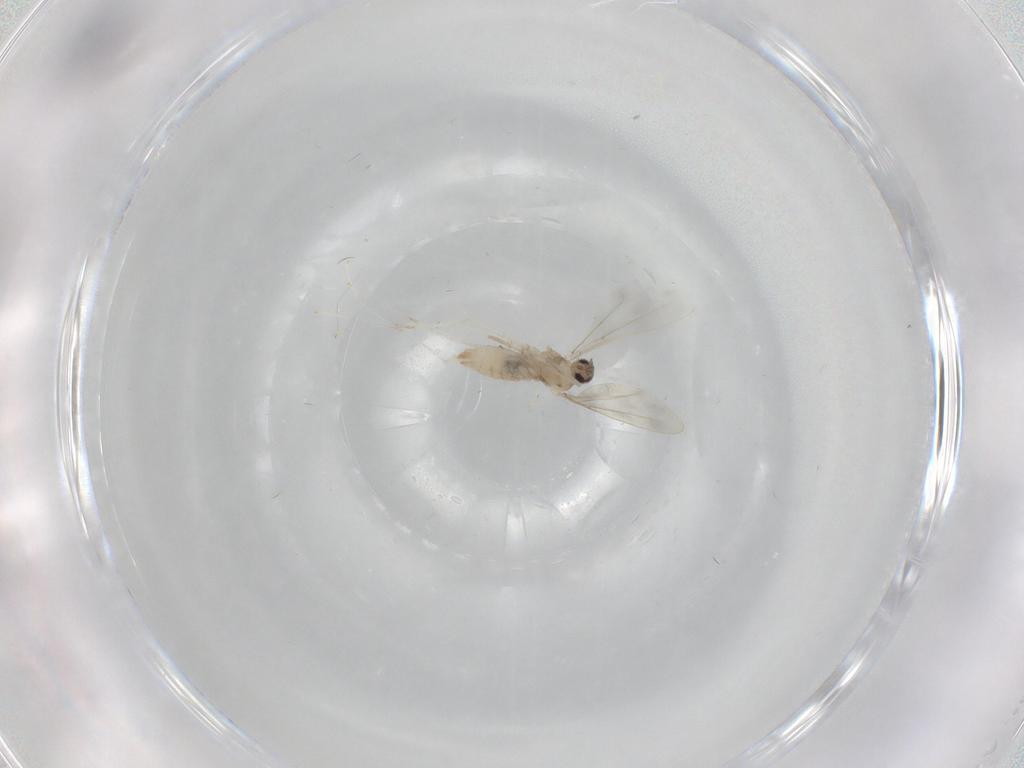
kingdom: Animalia
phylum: Arthropoda
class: Insecta
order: Diptera
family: Cecidomyiidae
